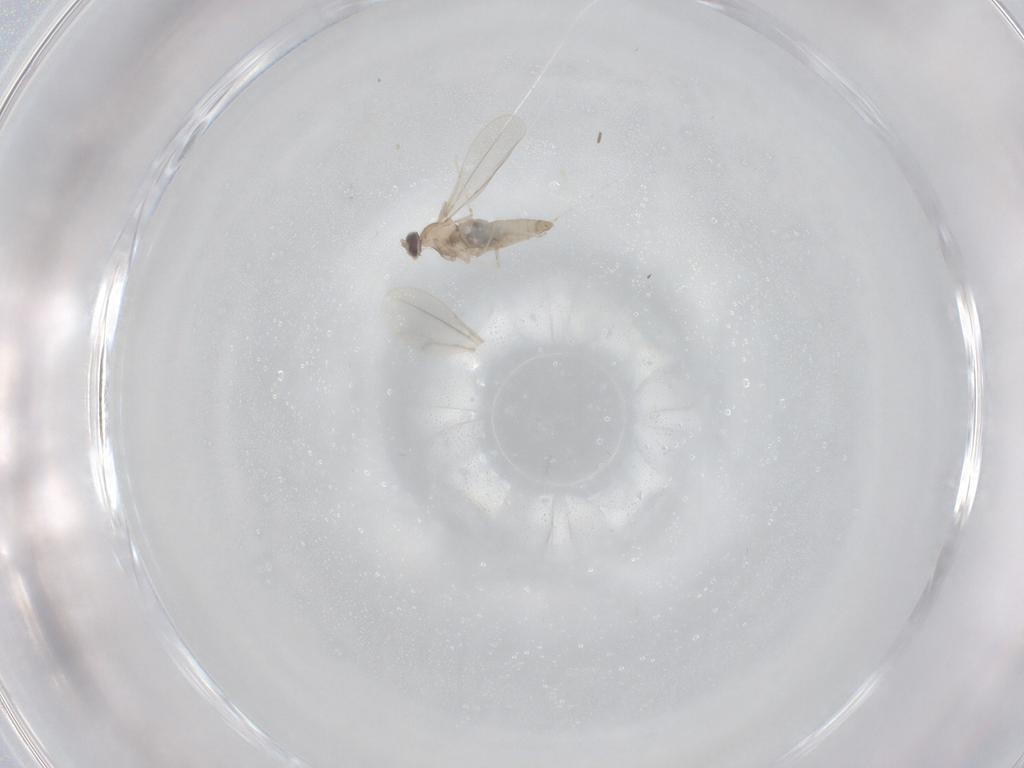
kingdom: Animalia
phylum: Arthropoda
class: Insecta
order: Diptera
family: Cecidomyiidae
